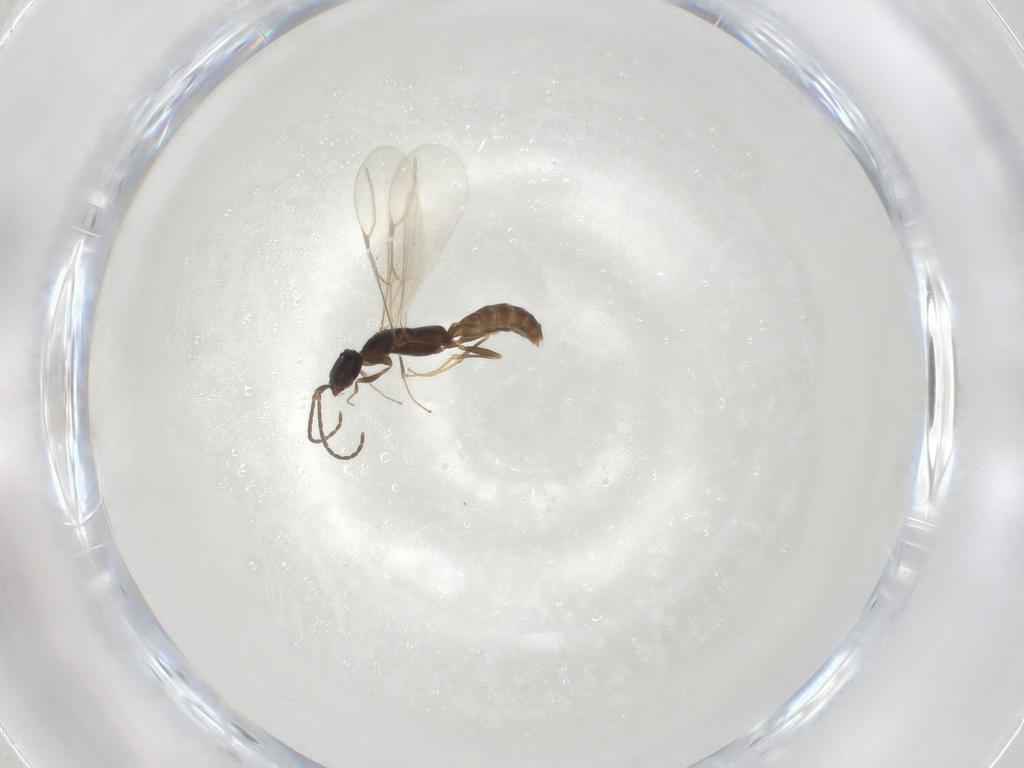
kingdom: Animalia
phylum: Arthropoda
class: Insecta
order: Hymenoptera
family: Bethylidae
